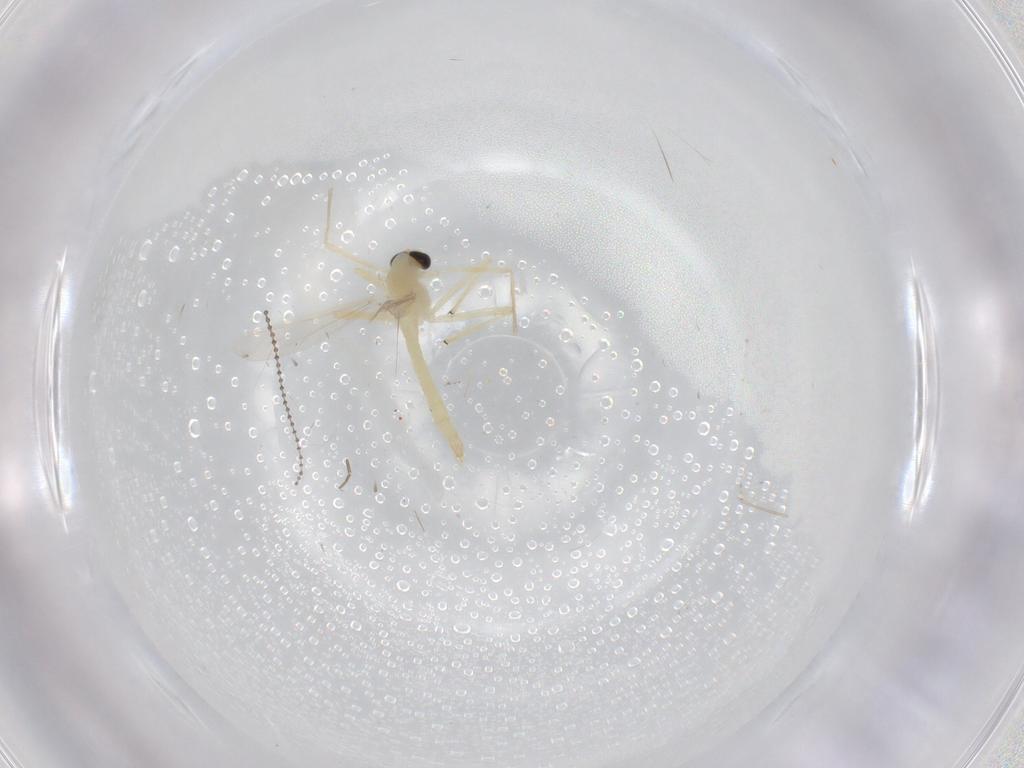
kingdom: Animalia
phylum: Arthropoda
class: Insecta
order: Diptera
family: Chironomidae
